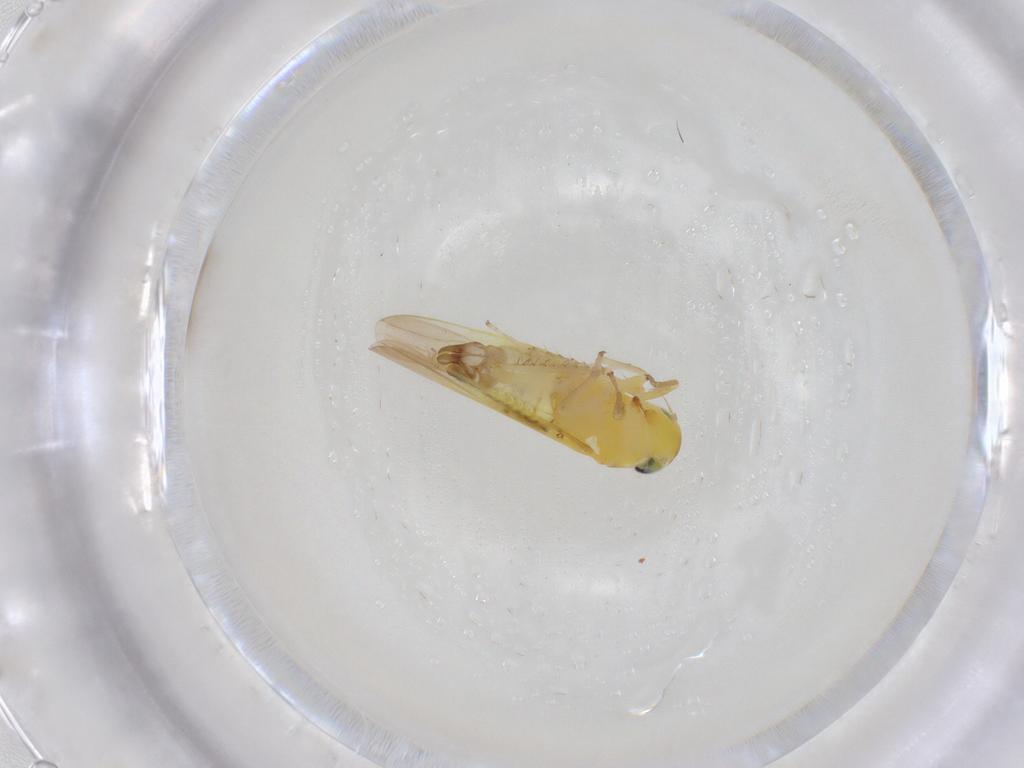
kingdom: Animalia
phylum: Arthropoda
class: Insecta
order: Hemiptera
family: Cicadellidae
